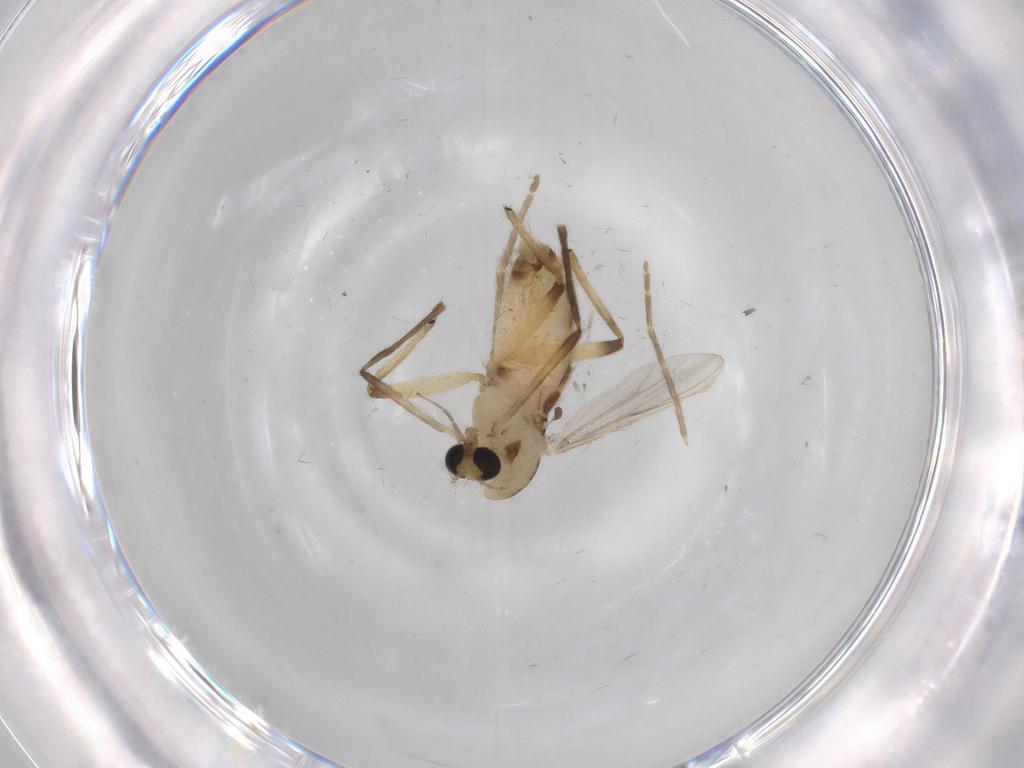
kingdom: Animalia
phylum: Arthropoda
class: Insecta
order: Diptera
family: Chironomidae
